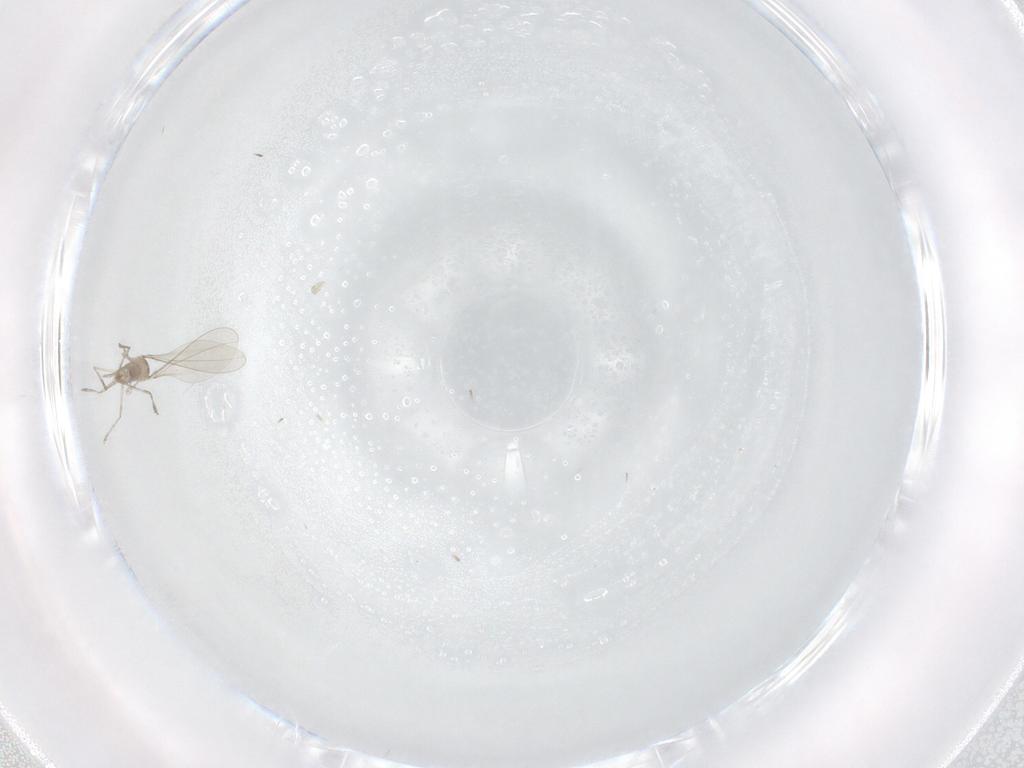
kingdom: Animalia
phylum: Arthropoda
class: Insecta
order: Diptera
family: Cecidomyiidae
